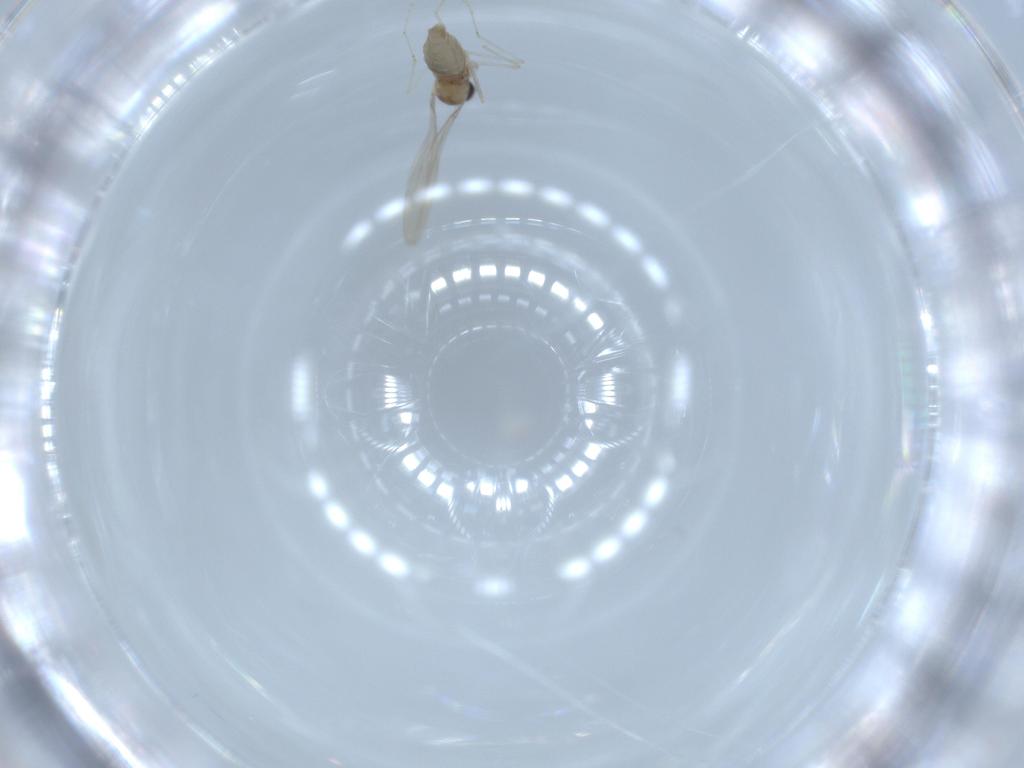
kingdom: Animalia
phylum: Arthropoda
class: Insecta
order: Diptera
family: Cecidomyiidae
